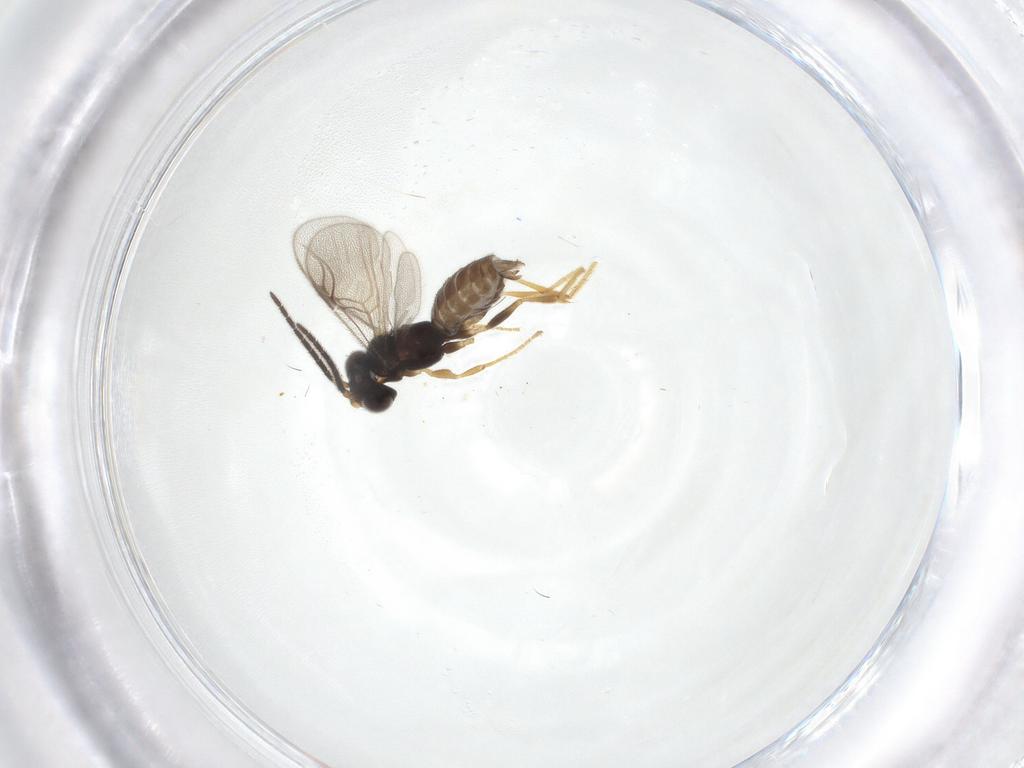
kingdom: Animalia
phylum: Arthropoda
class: Insecta
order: Hymenoptera
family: Dryinidae
